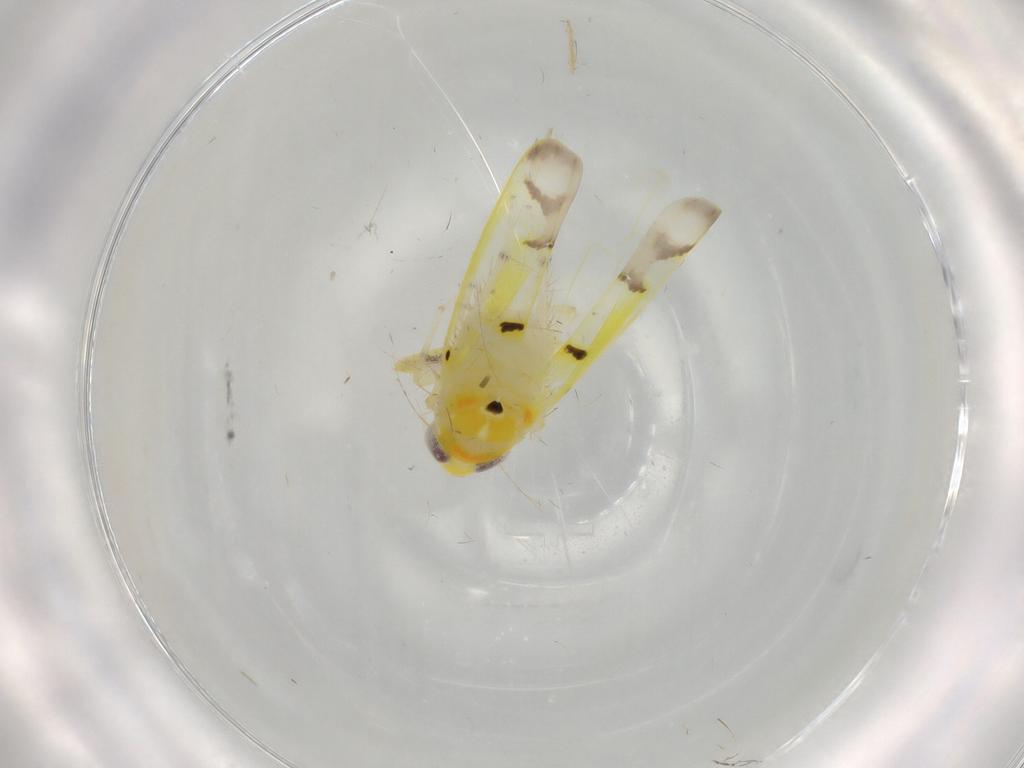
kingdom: Animalia
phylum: Arthropoda
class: Insecta
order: Hemiptera
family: Cicadellidae
